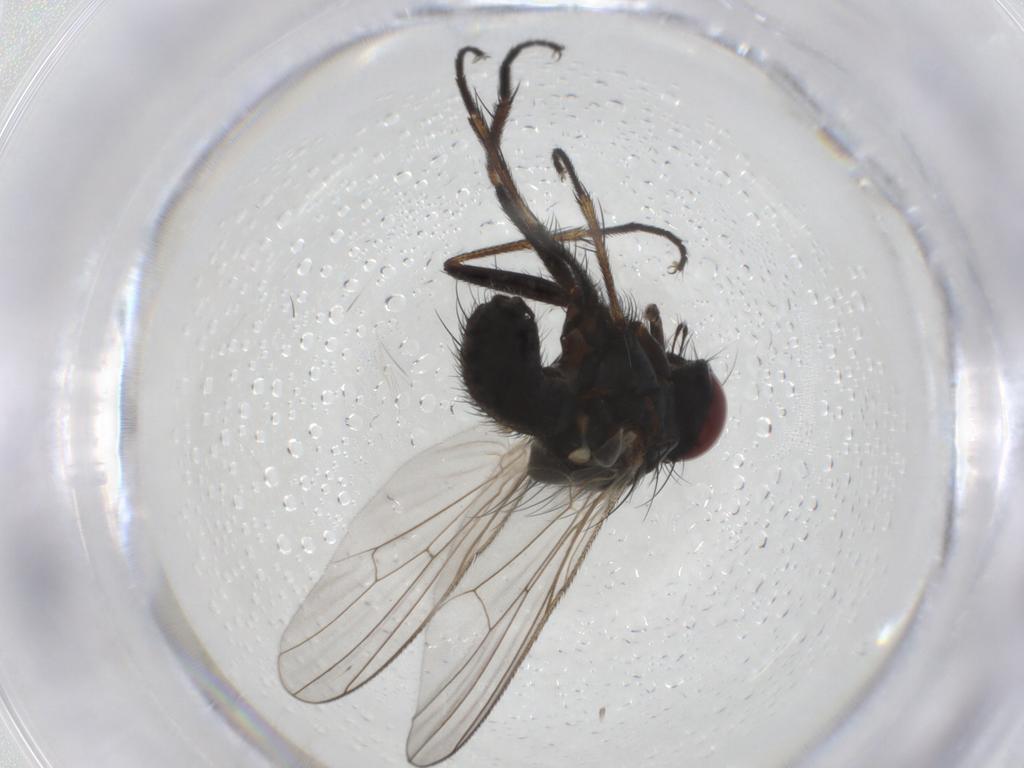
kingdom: Animalia
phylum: Arthropoda
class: Insecta
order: Diptera
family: Muscidae
